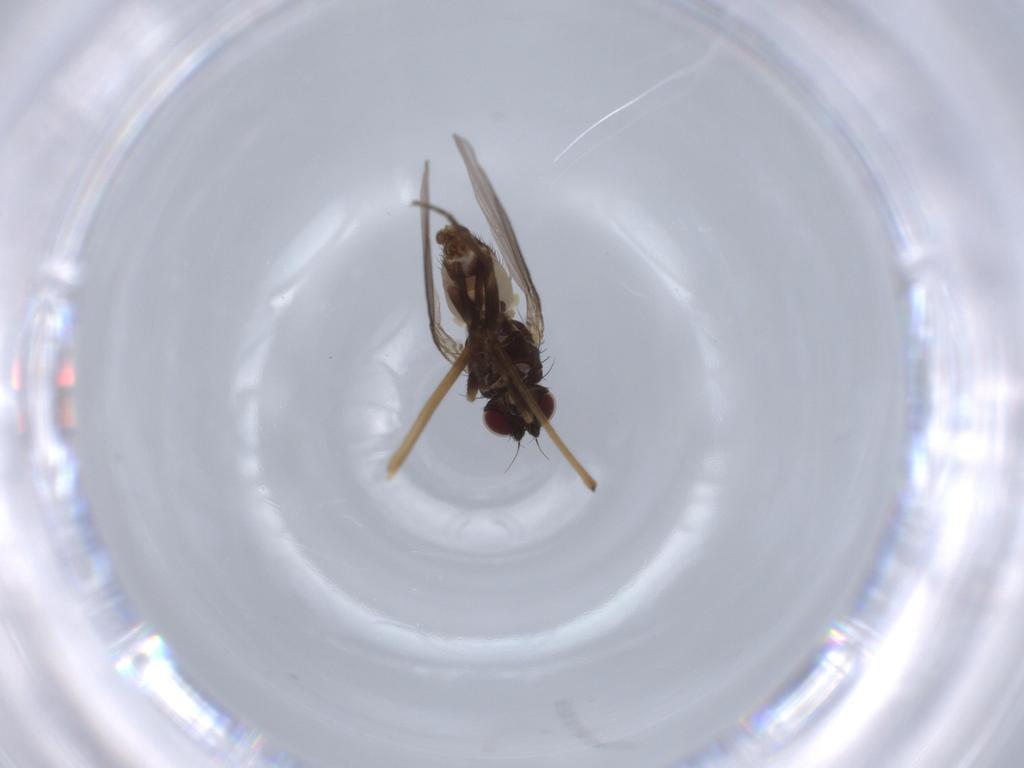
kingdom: Animalia
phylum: Arthropoda
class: Insecta
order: Diptera
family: Agromyzidae
